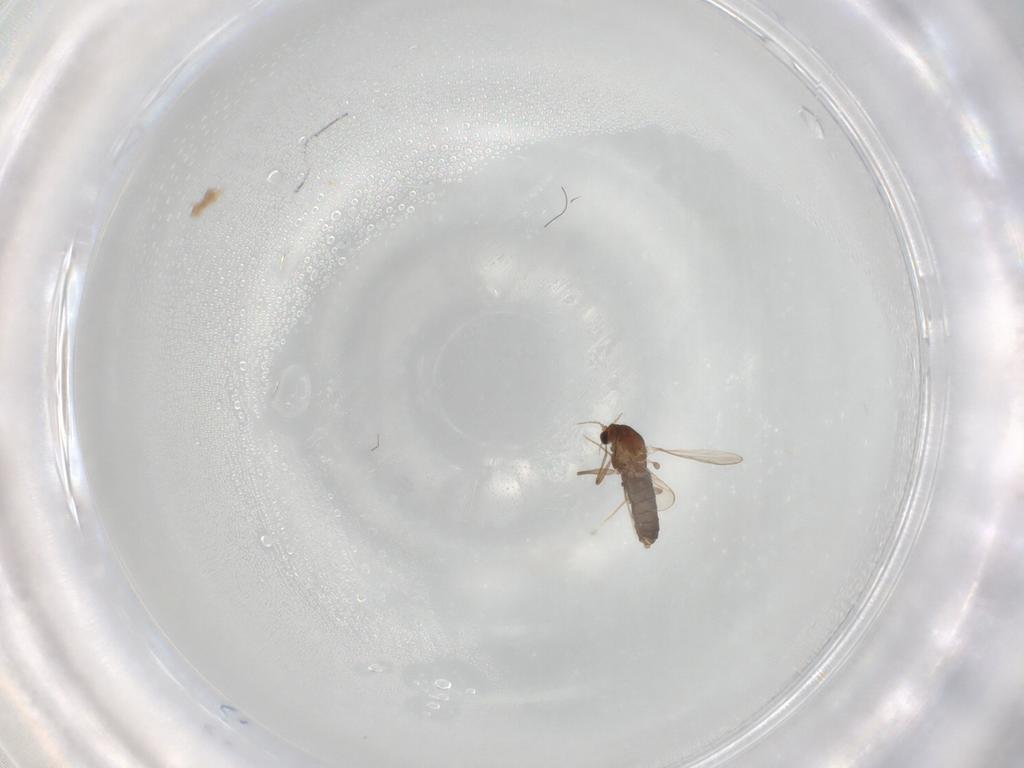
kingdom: Animalia
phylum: Arthropoda
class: Insecta
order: Diptera
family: Chironomidae
